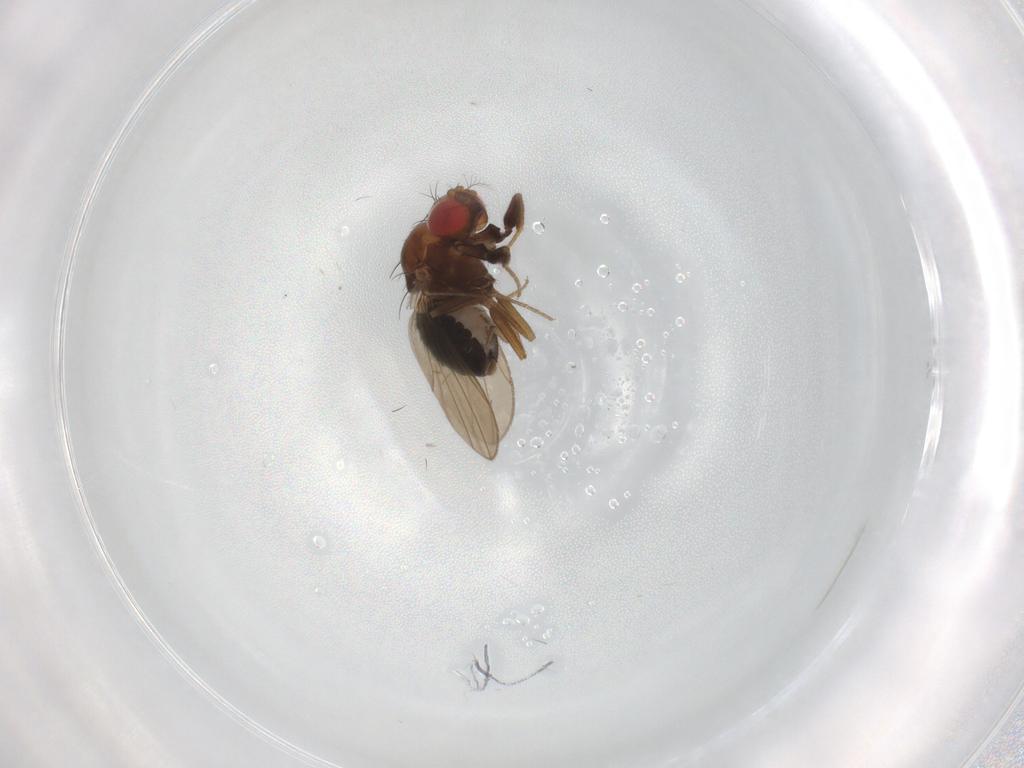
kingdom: Animalia
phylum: Arthropoda
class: Insecta
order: Diptera
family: Drosophilidae
